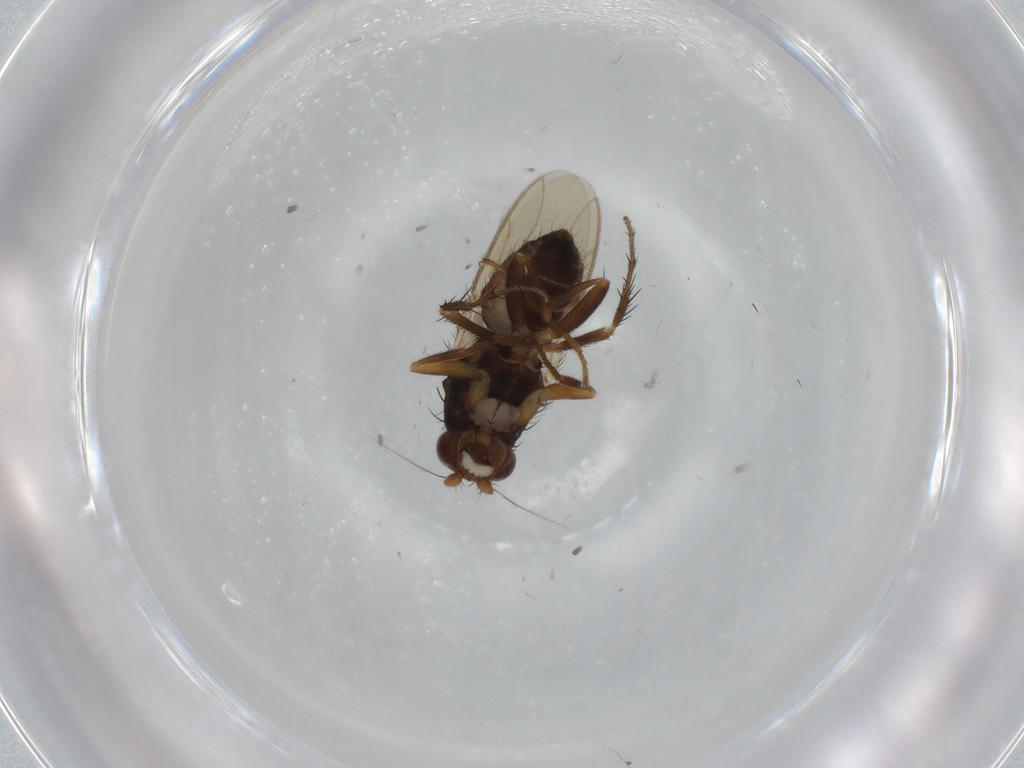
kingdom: Animalia
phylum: Arthropoda
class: Insecta
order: Diptera
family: Sphaeroceridae
